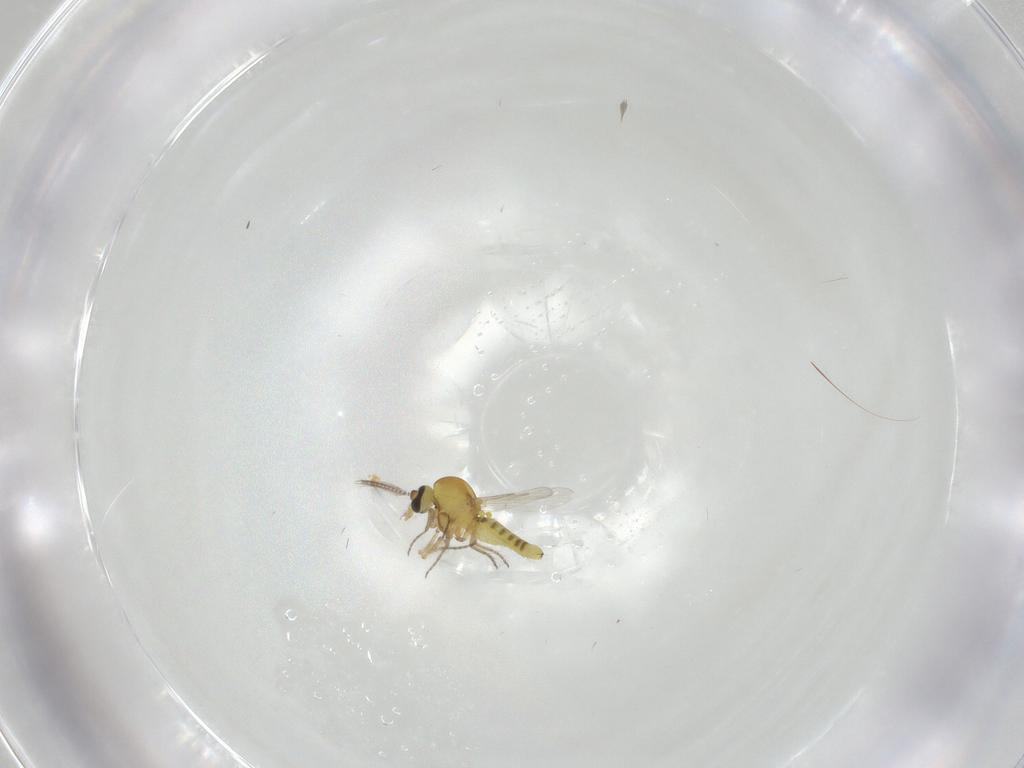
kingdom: Animalia
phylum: Arthropoda
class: Insecta
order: Diptera
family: Ceratopogonidae
